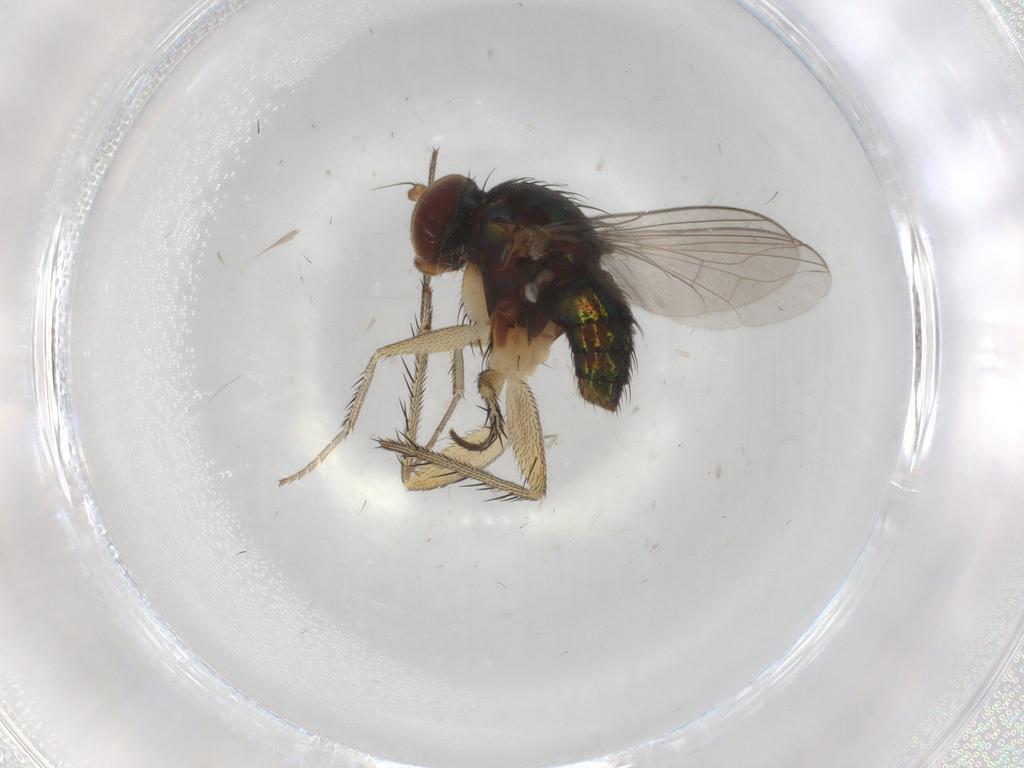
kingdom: Animalia
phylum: Arthropoda
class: Insecta
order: Diptera
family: Dolichopodidae
